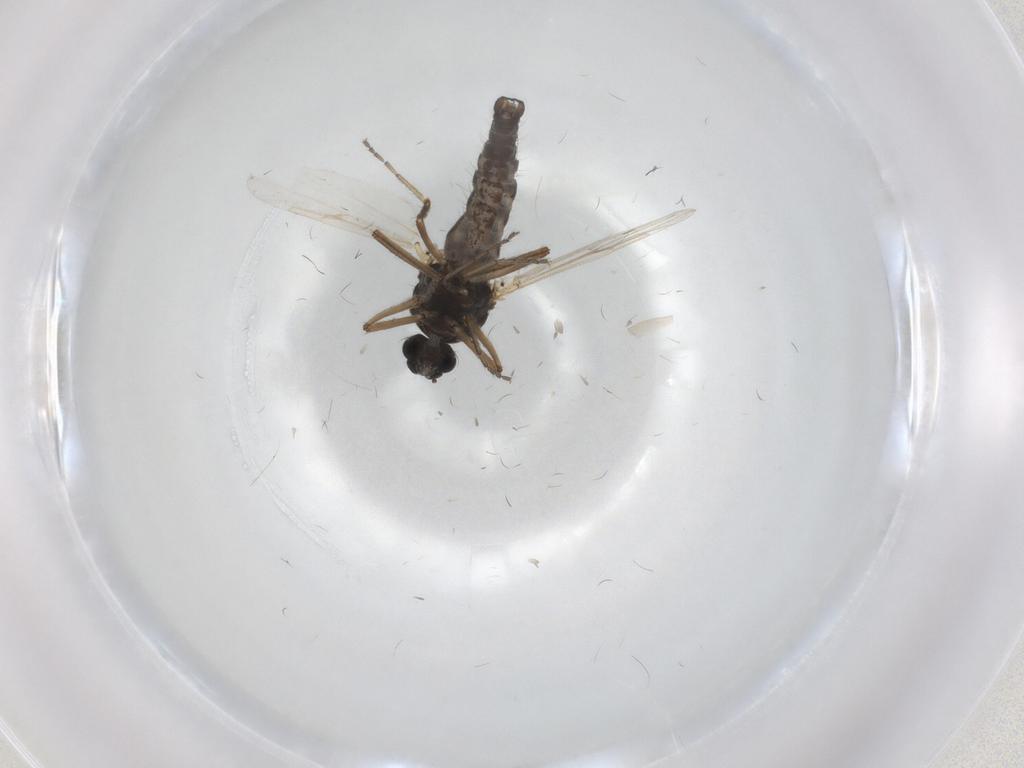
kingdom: Animalia
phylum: Arthropoda
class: Insecta
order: Diptera
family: Ceratopogonidae
